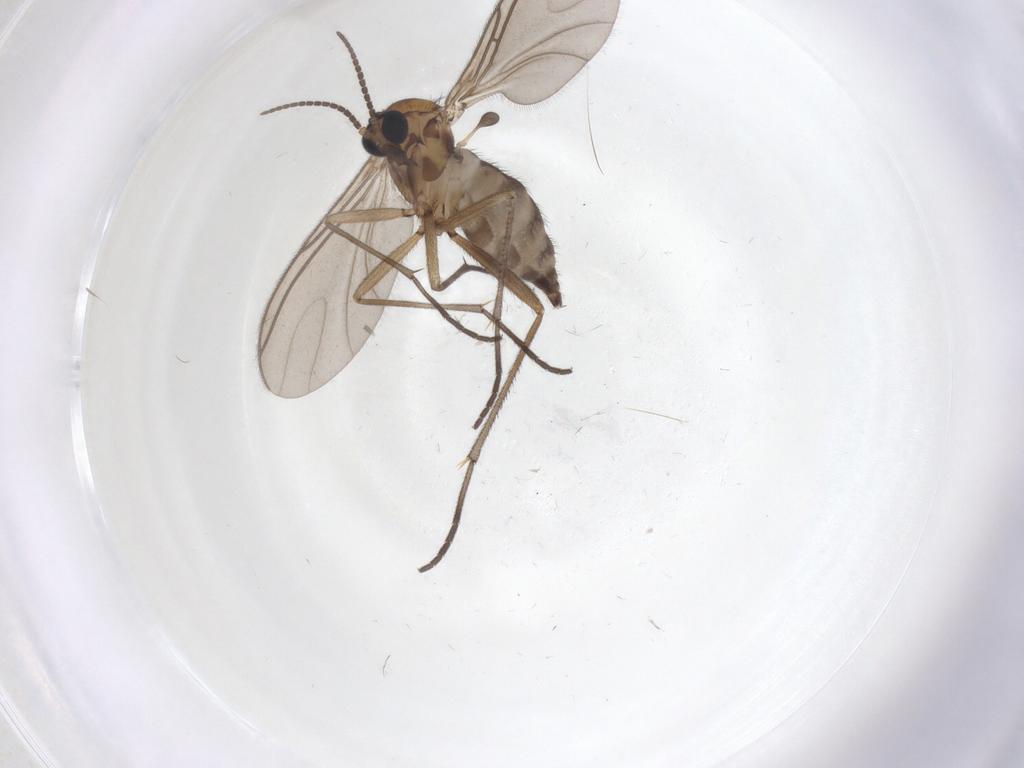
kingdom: Animalia
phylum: Arthropoda
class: Insecta
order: Diptera
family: Sciaridae
